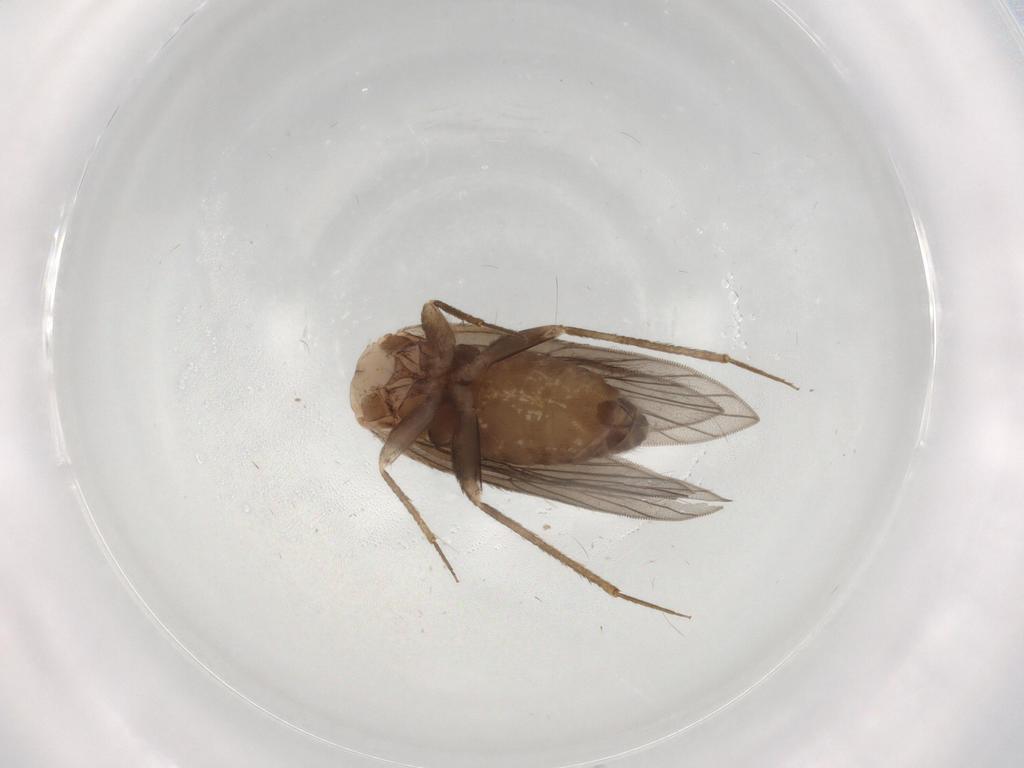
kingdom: Animalia
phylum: Arthropoda
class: Insecta
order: Psocodea
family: Lepidopsocidae
